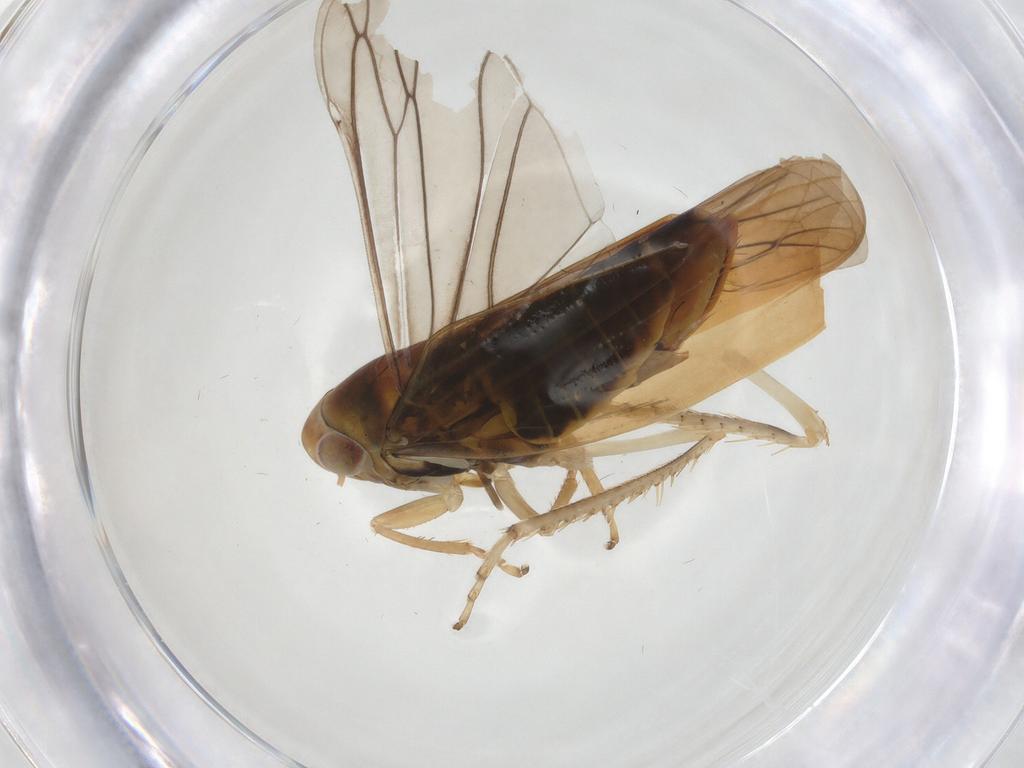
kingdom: Animalia
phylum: Arthropoda
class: Insecta
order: Hemiptera
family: Cicadellidae
